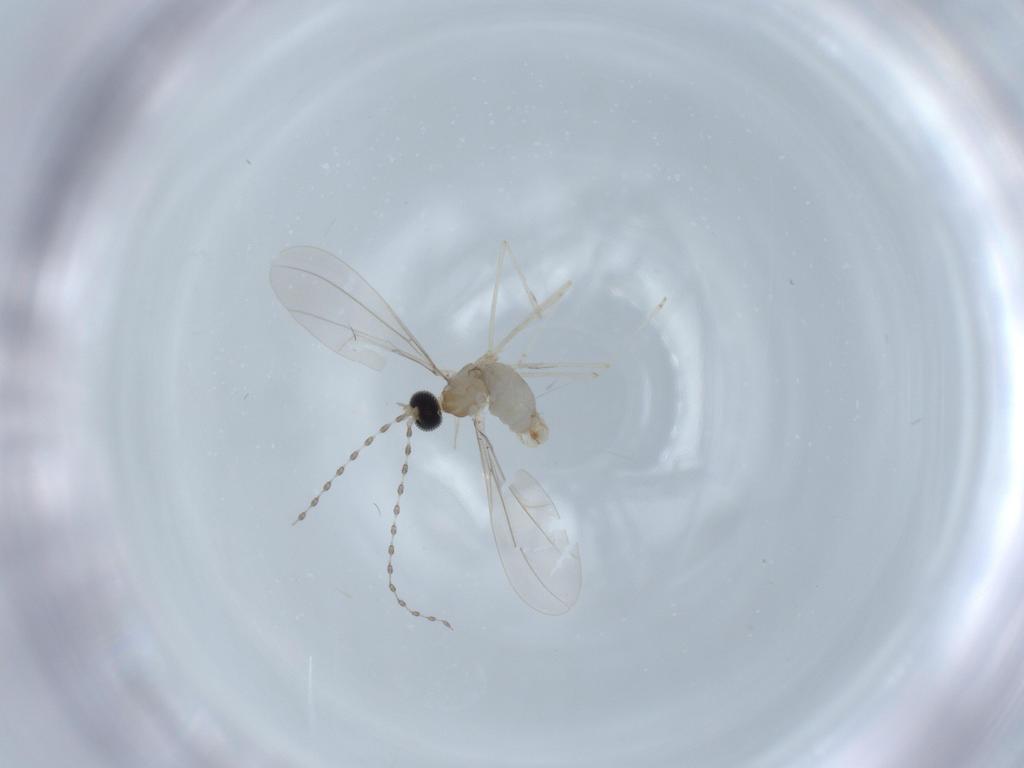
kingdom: Animalia
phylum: Arthropoda
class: Insecta
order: Diptera
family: Cecidomyiidae
